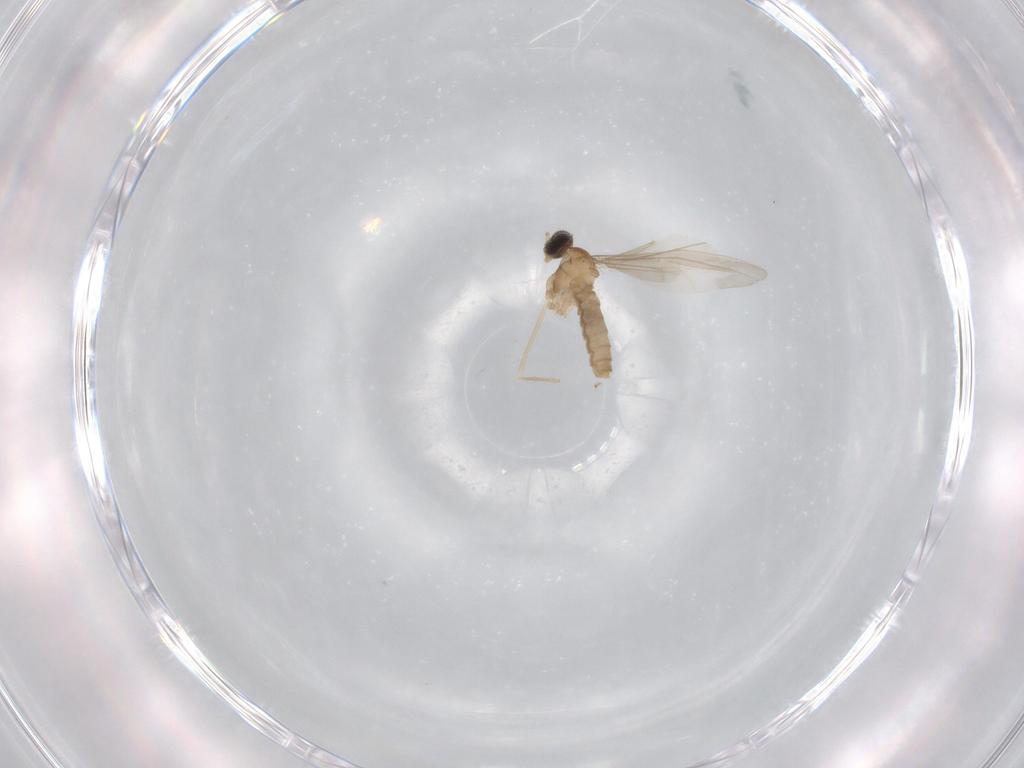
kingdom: Animalia
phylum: Arthropoda
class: Insecta
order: Diptera
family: Cecidomyiidae
